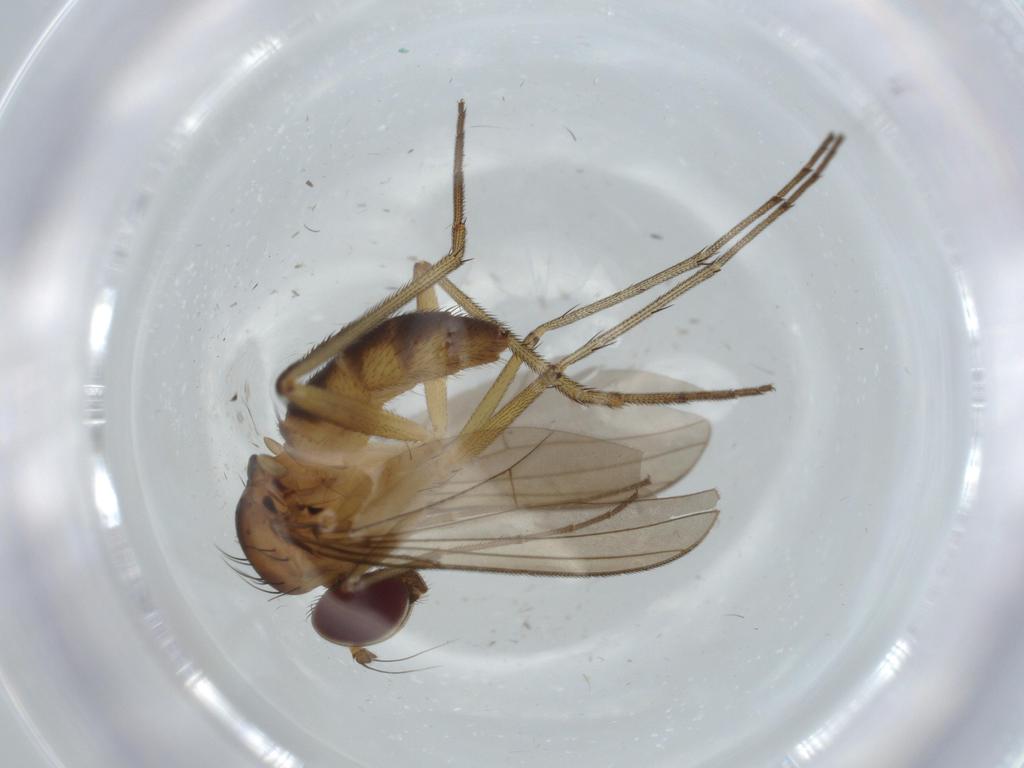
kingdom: Animalia
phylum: Arthropoda
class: Insecta
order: Diptera
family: Dolichopodidae
